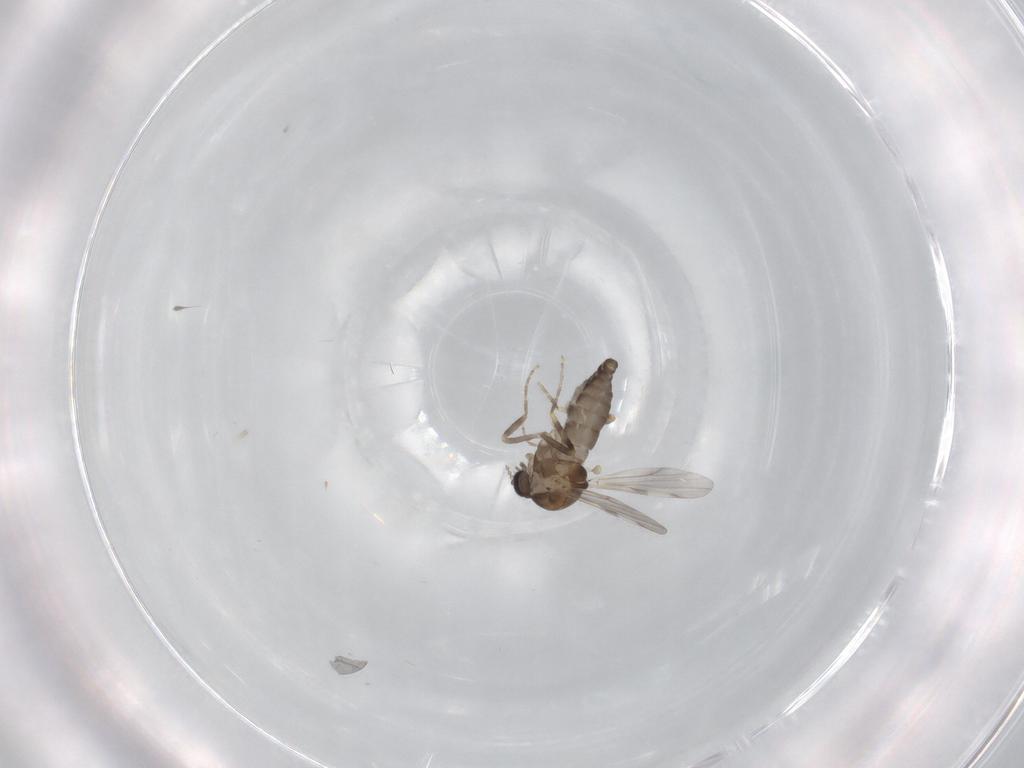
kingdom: Animalia
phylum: Arthropoda
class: Insecta
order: Diptera
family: Ceratopogonidae
